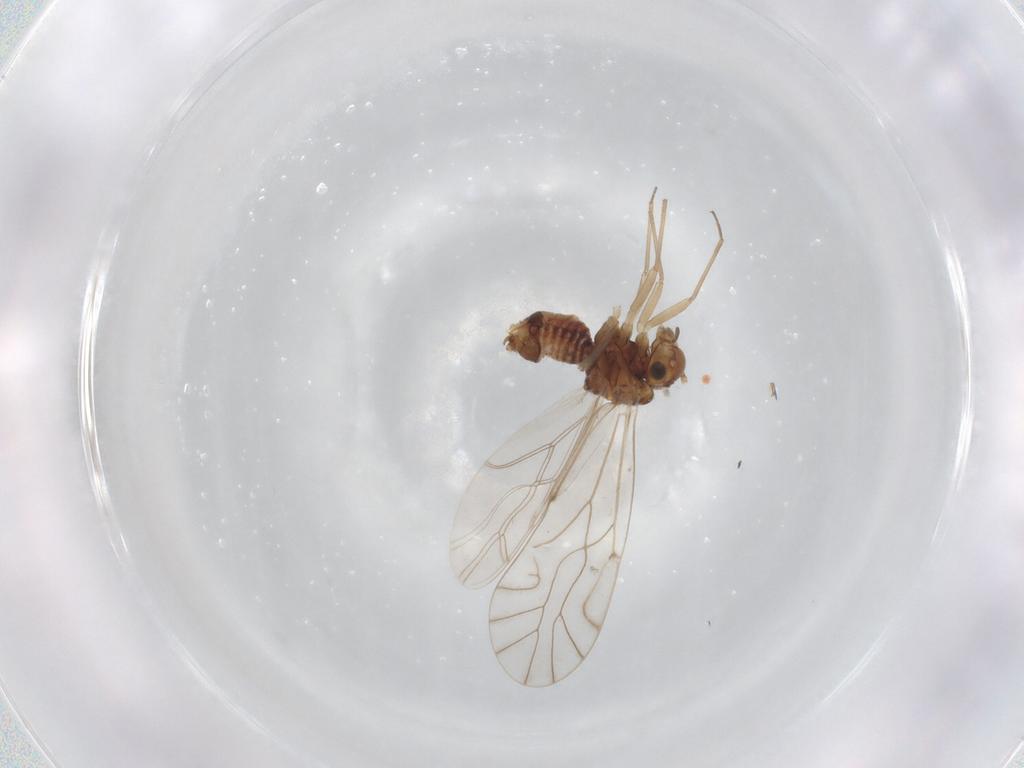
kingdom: Animalia
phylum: Arthropoda
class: Insecta
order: Psocodea
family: Lachesillidae
